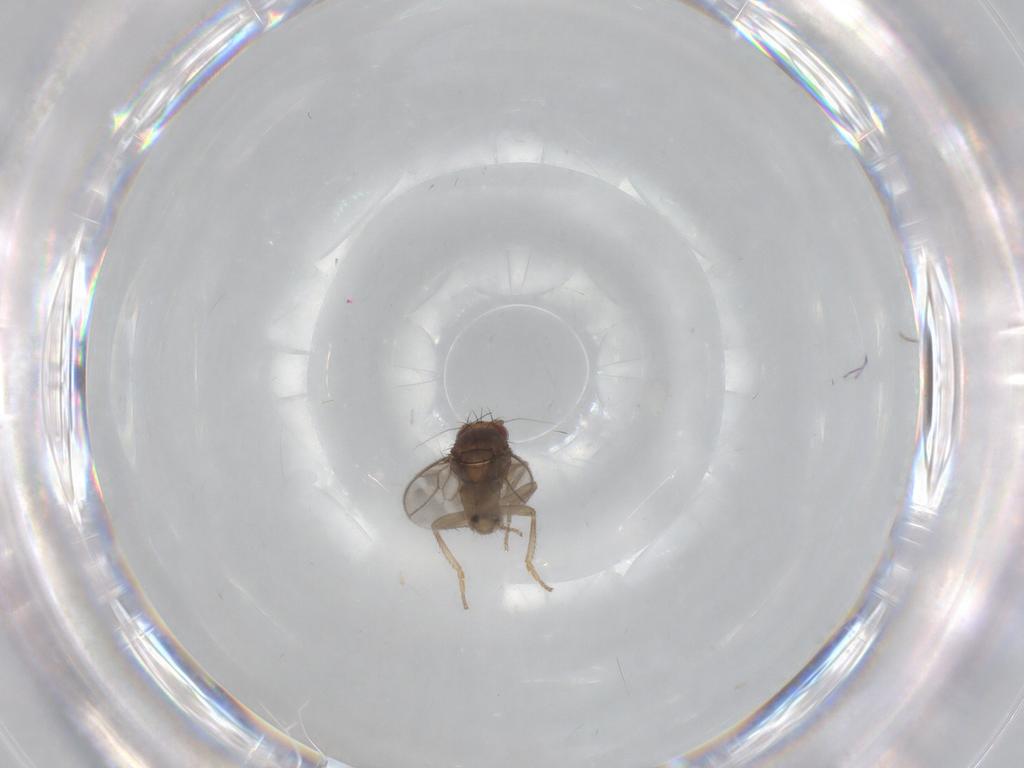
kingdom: Animalia
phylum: Arthropoda
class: Insecta
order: Diptera
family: Sphaeroceridae
